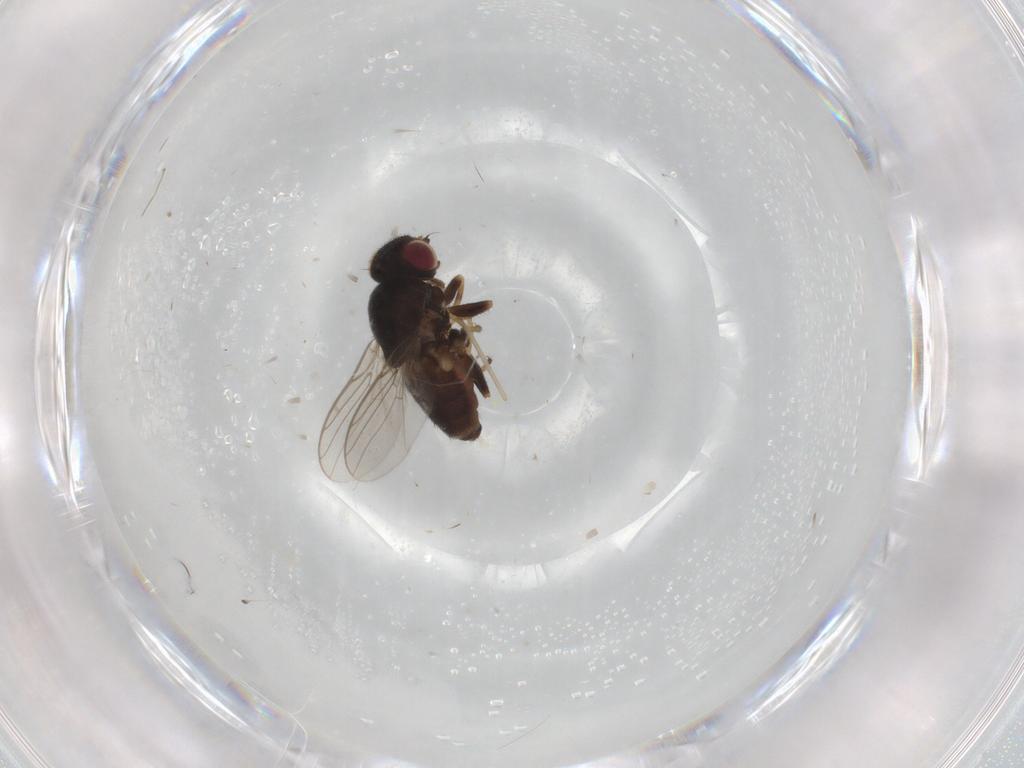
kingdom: Animalia
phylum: Arthropoda
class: Insecta
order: Diptera
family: Chloropidae
